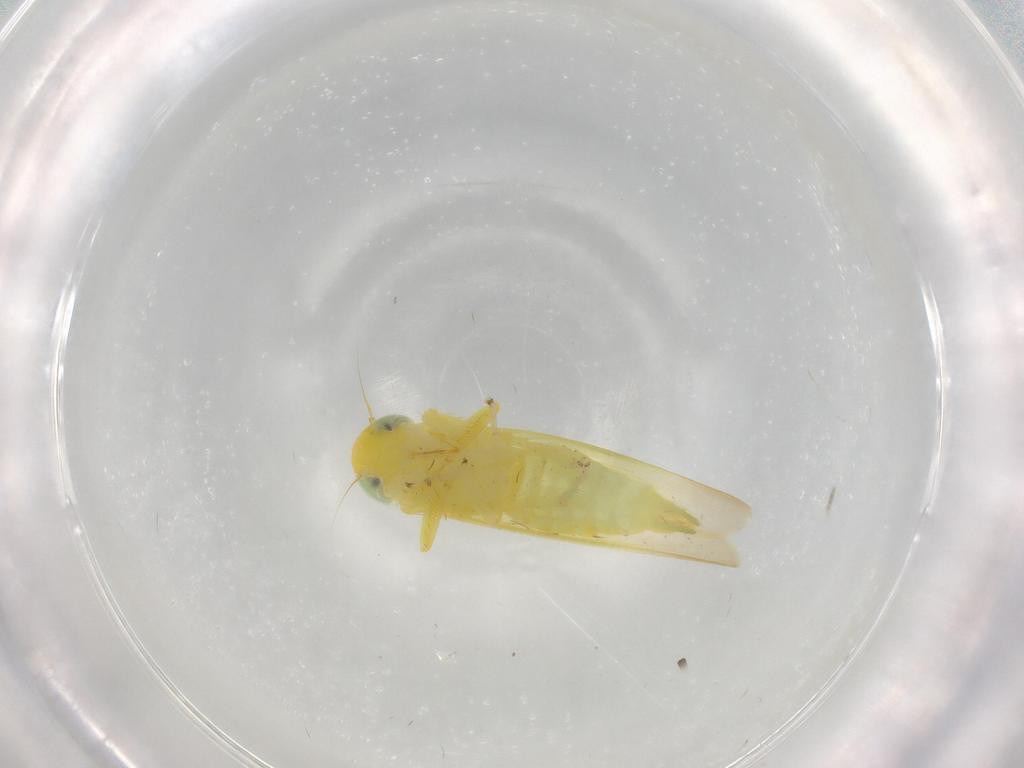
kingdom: Animalia
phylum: Arthropoda
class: Insecta
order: Hemiptera
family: Cicadellidae
